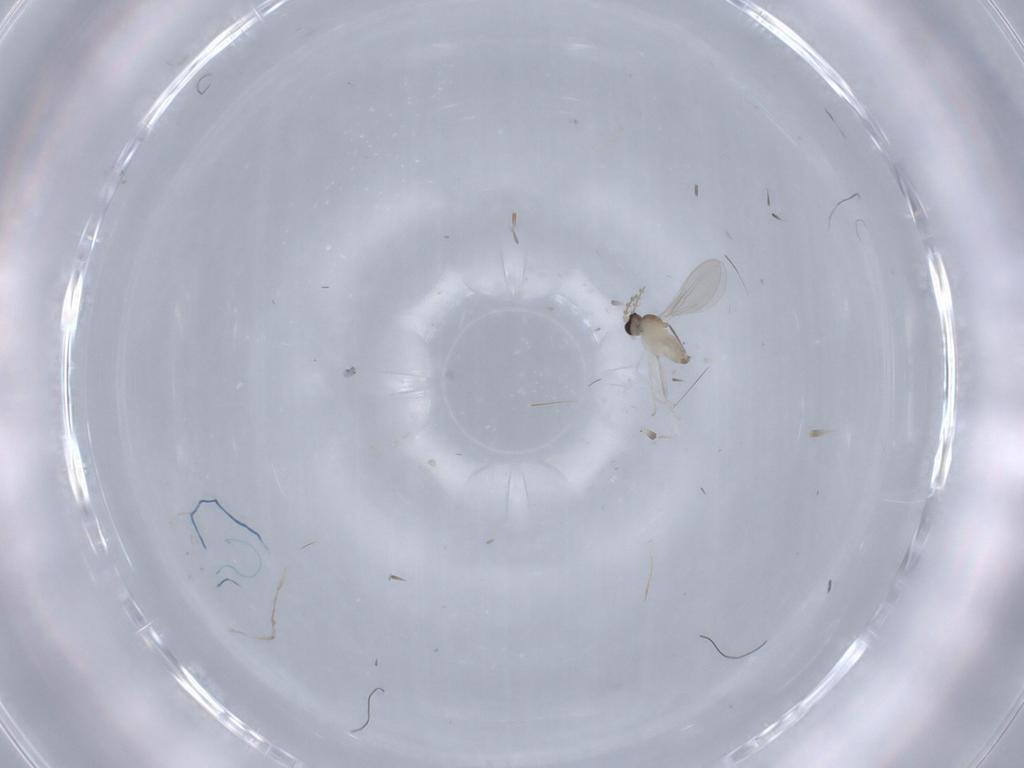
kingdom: Animalia
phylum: Arthropoda
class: Insecta
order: Diptera
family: Cecidomyiidae
